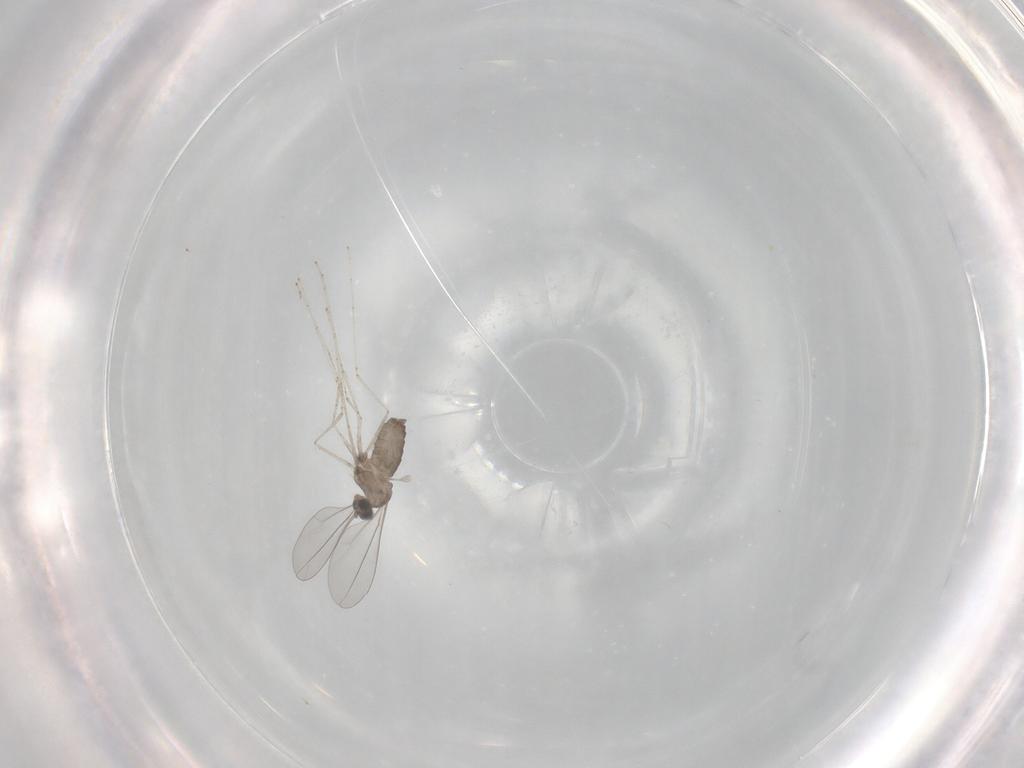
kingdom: Animalia
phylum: Arthropoda
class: Insecta
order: Diptera
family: Cecidomyiidae
